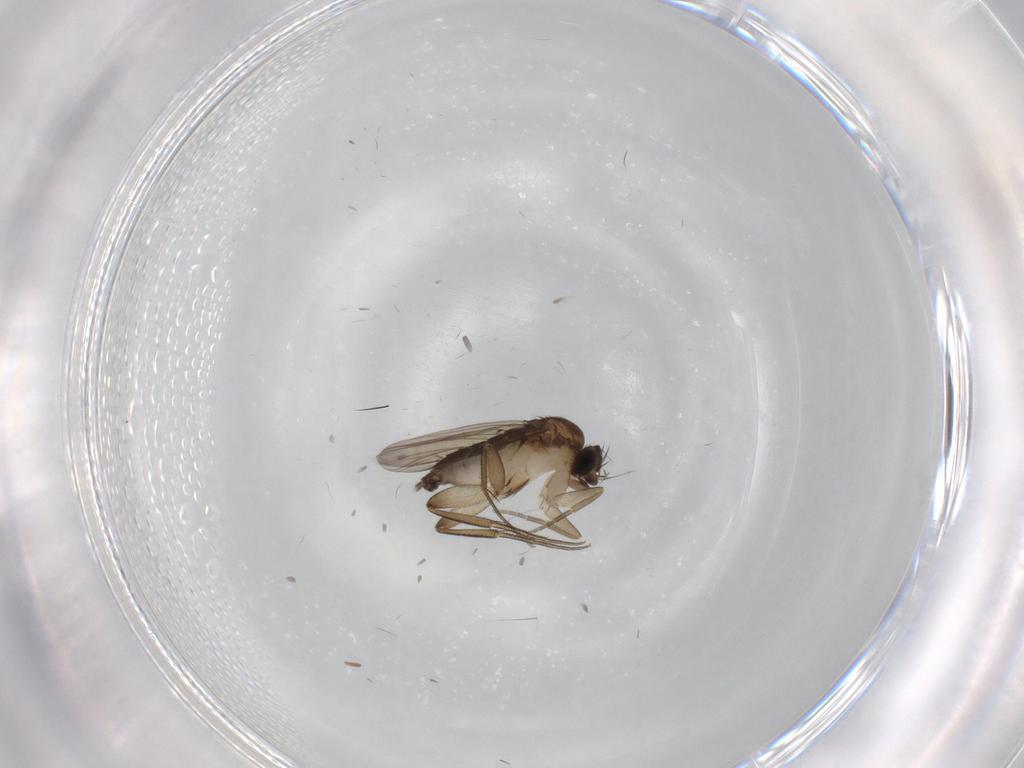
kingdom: Animalia
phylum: Arthropoda
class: Insecta
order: Diptera
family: Phoridae
